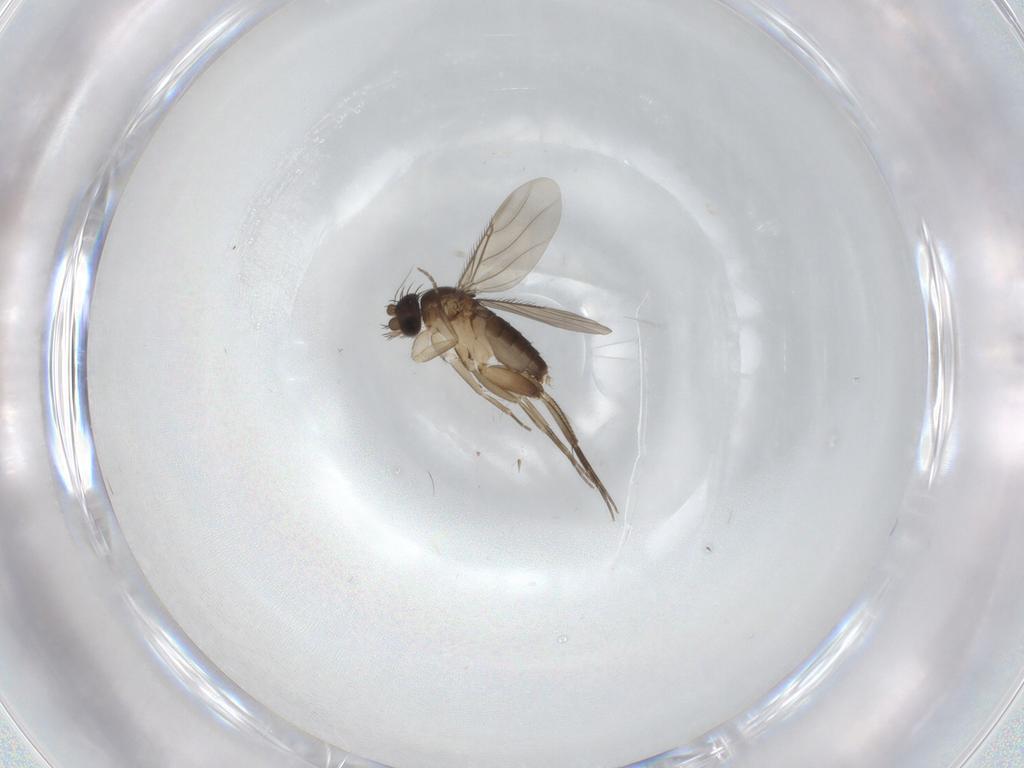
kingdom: Animalia
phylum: Arthropoda
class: Insecta
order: Diptera
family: Phoridae
